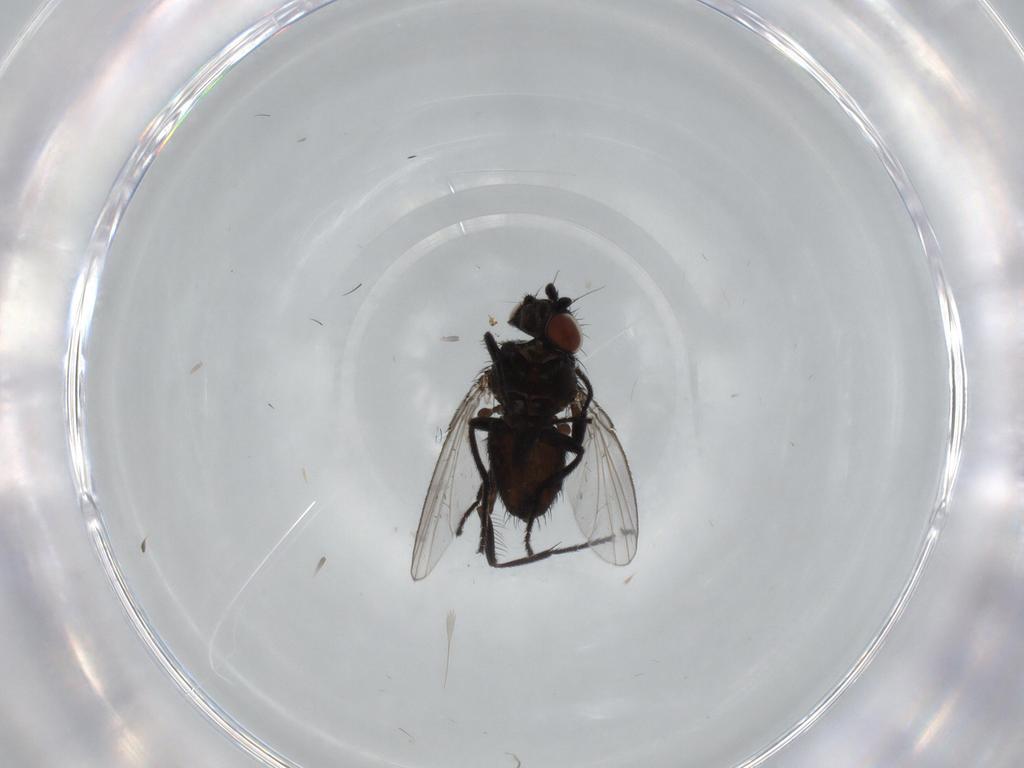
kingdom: Animalia
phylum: Arthropoda
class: Insecta
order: Diptera
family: Milichiidae
